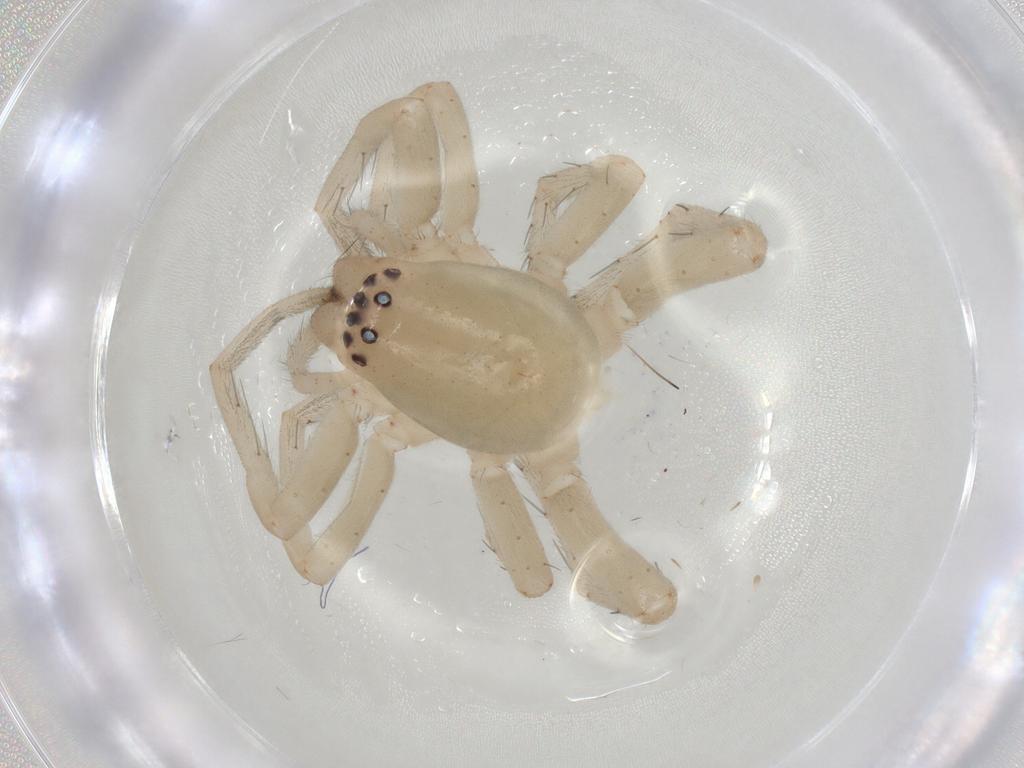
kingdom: Animalia
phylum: Arthropoda
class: Arachnida
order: Araneae
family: Clubionidae
